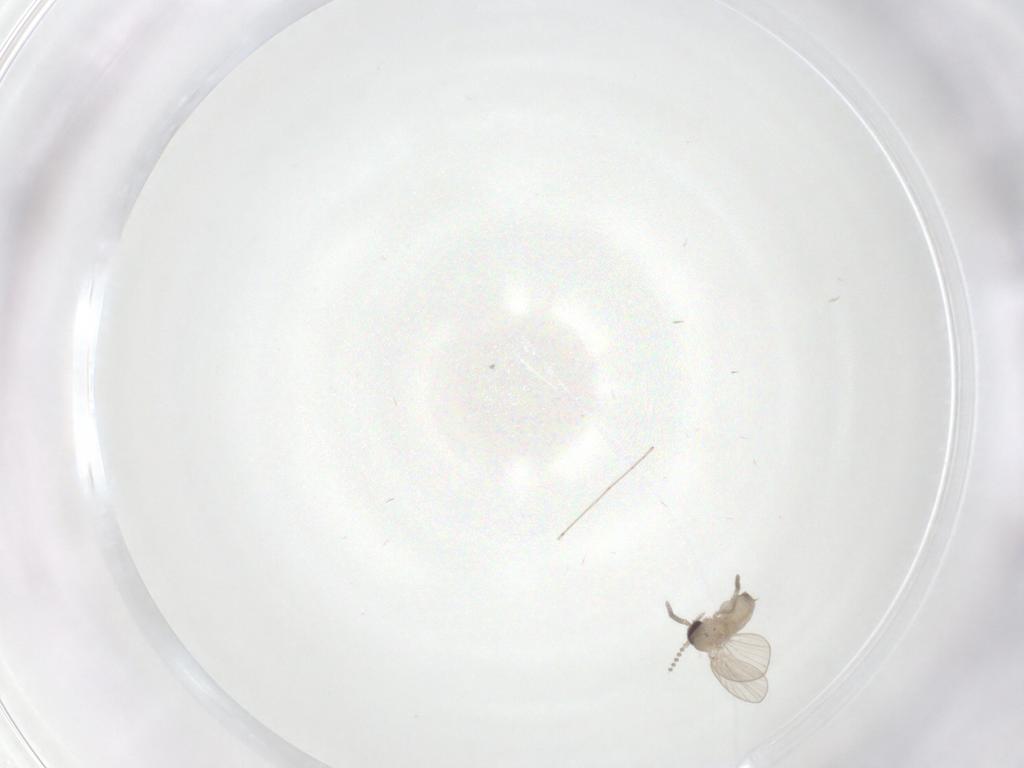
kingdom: Animalia
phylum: Arthropoda
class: Insecta
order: Diptera
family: Psychodidae
